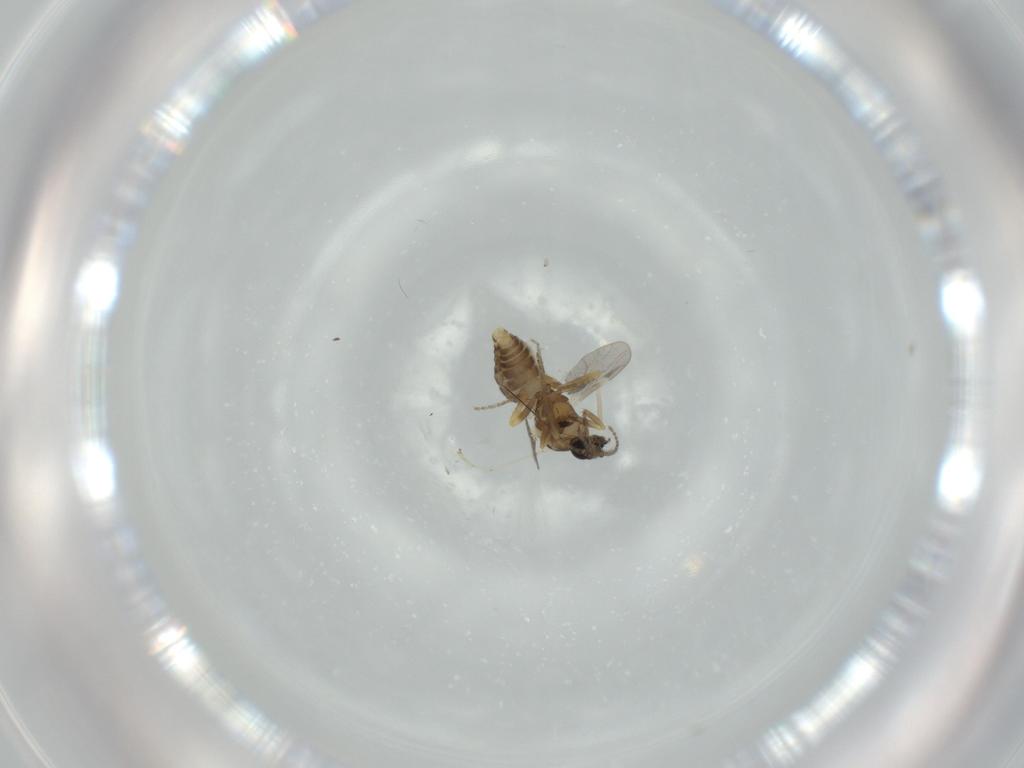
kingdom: Animalia
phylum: Arthropoda
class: Insecta
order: Diptera
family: Cecidomyiidae
